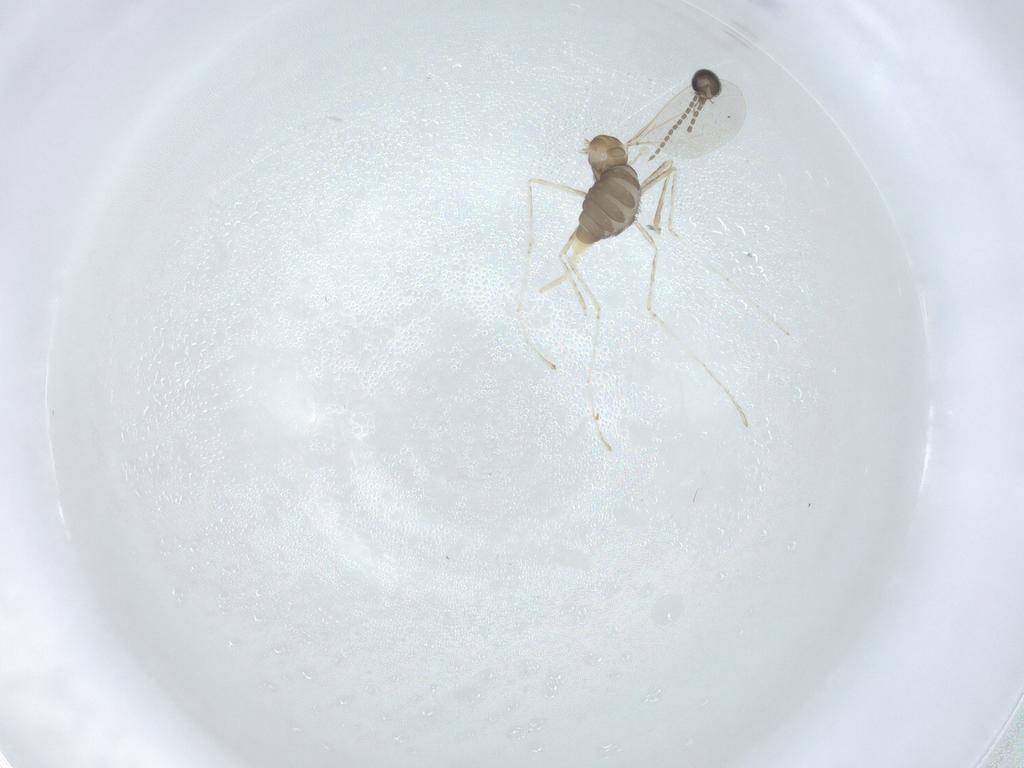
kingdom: Animalia
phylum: Arthropoda
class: Insecta
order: Diptera
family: Cecidomyiidae
